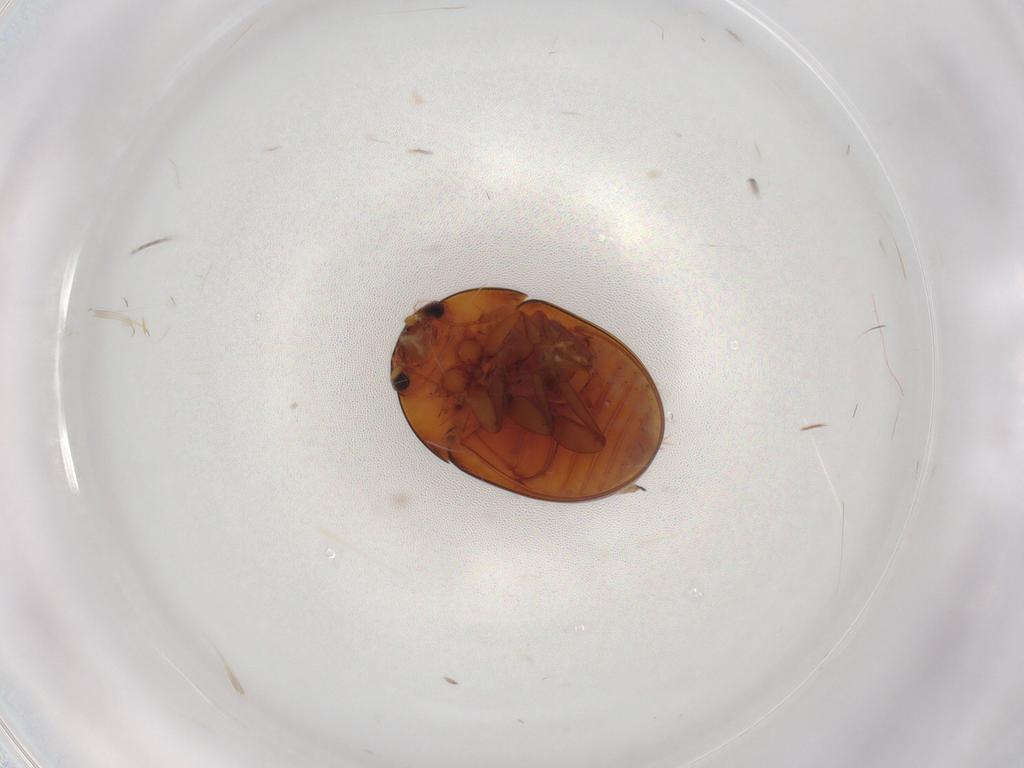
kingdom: Animalia
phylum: Arthropoda
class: Insecta
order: Coleoptera
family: Phalacridae
